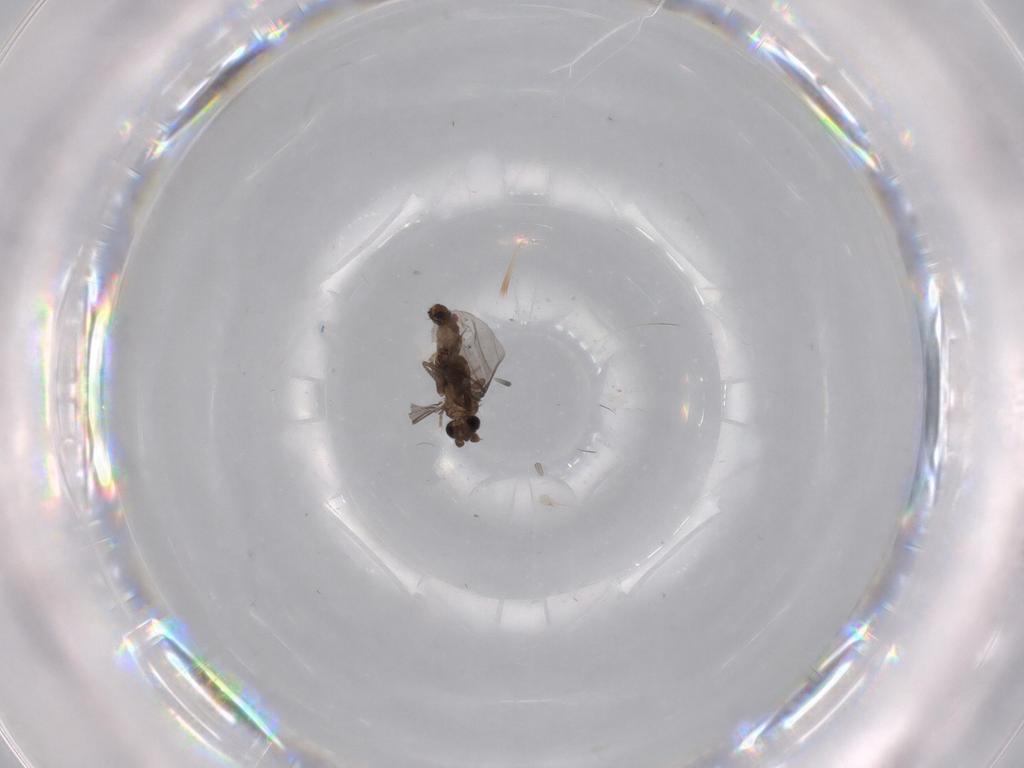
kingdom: Animalia
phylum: Arthropoda
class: Insecta
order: Diptera
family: Phoridae
